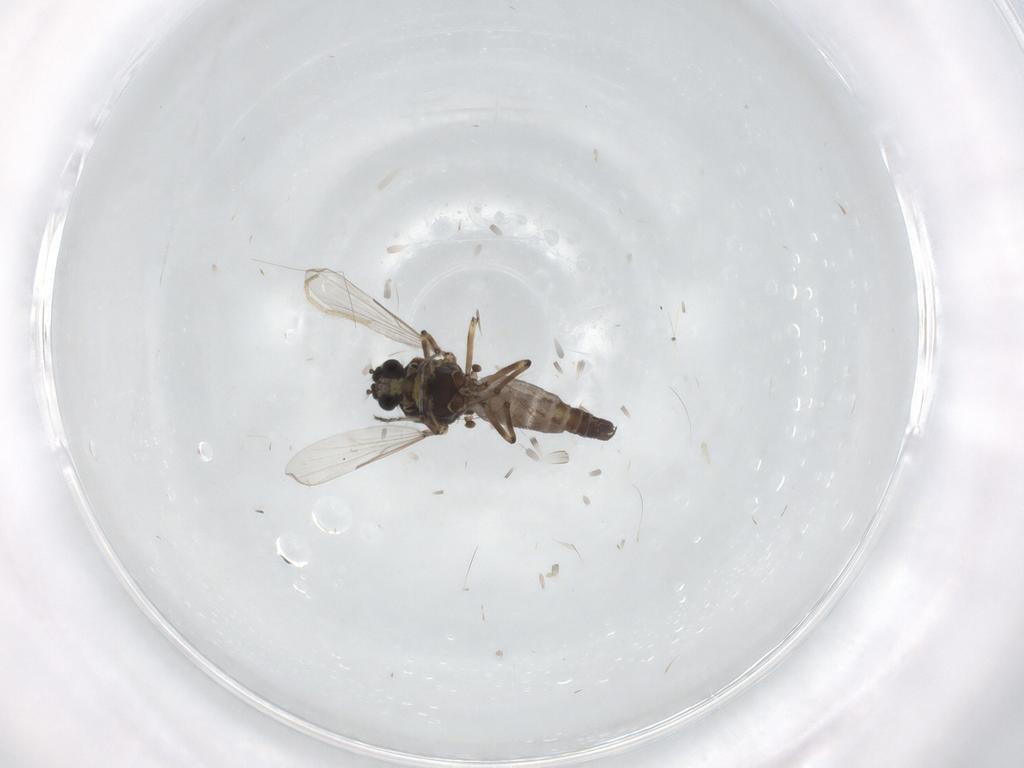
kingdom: Animalia
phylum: Arthropoda
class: Insecta
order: Diptera
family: Ceratopogonidae
